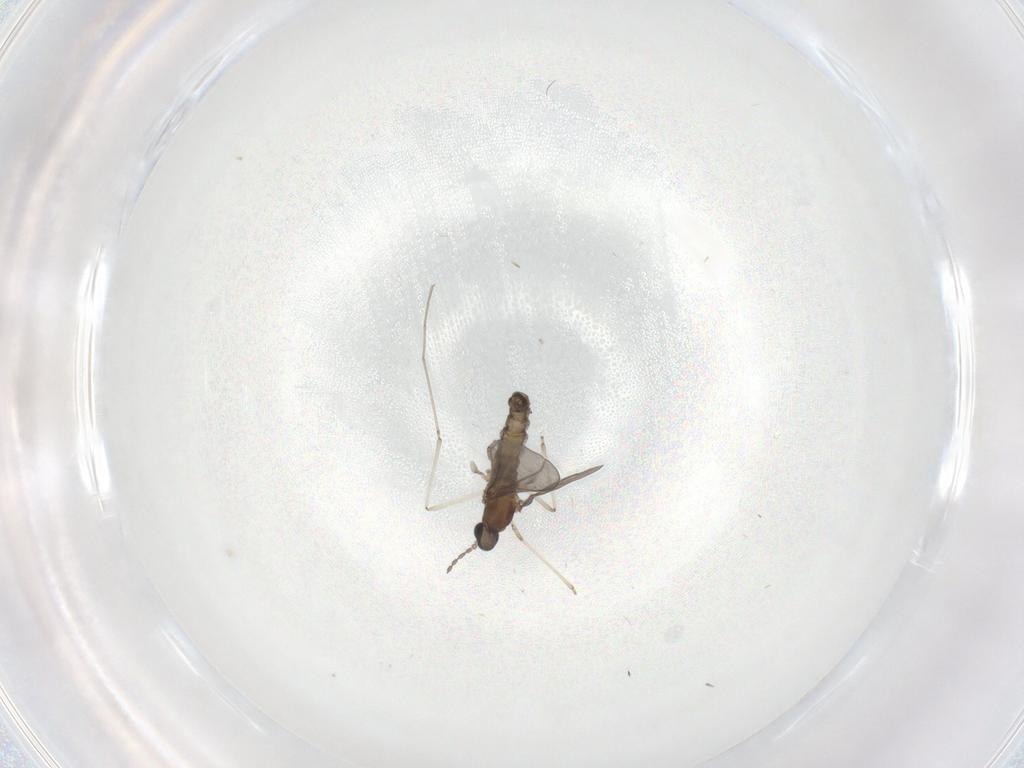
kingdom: Animalia
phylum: Arthropoda
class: Insecta
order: Diptera
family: Cecidomyiidae
